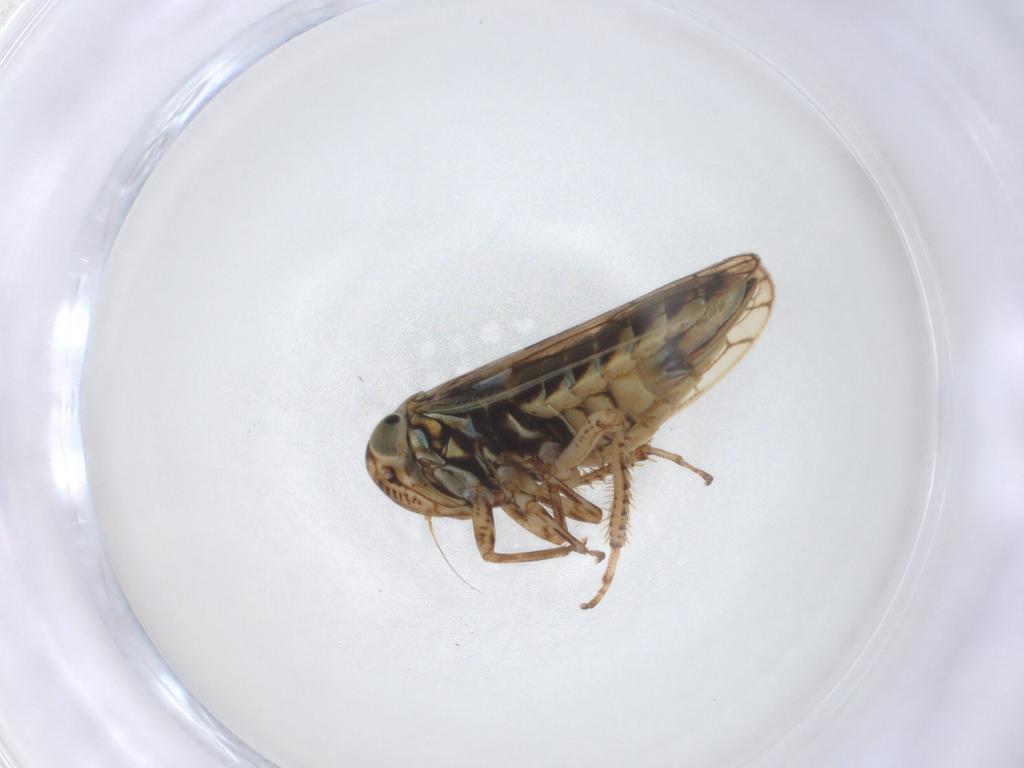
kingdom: Animalia
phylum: Arthropoda
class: Insecta
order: Hemiptera
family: Cicadellidae
